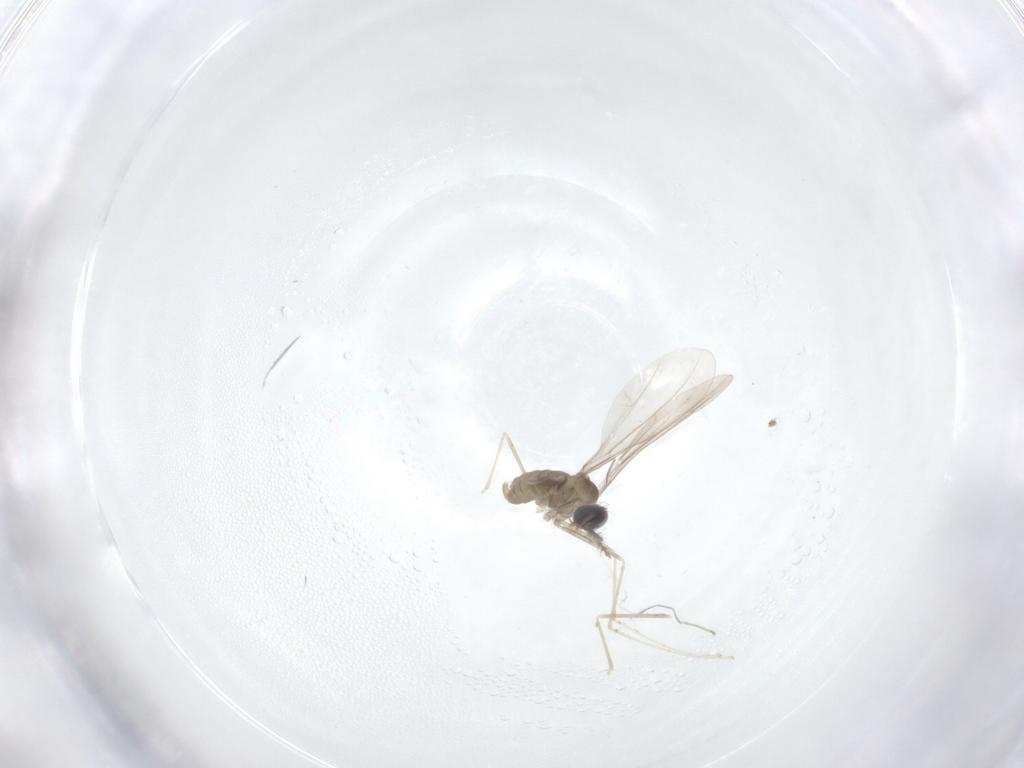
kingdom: Animalia
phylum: Arthropoda
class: Insecta
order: Diptera
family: Cecidomyiidae
